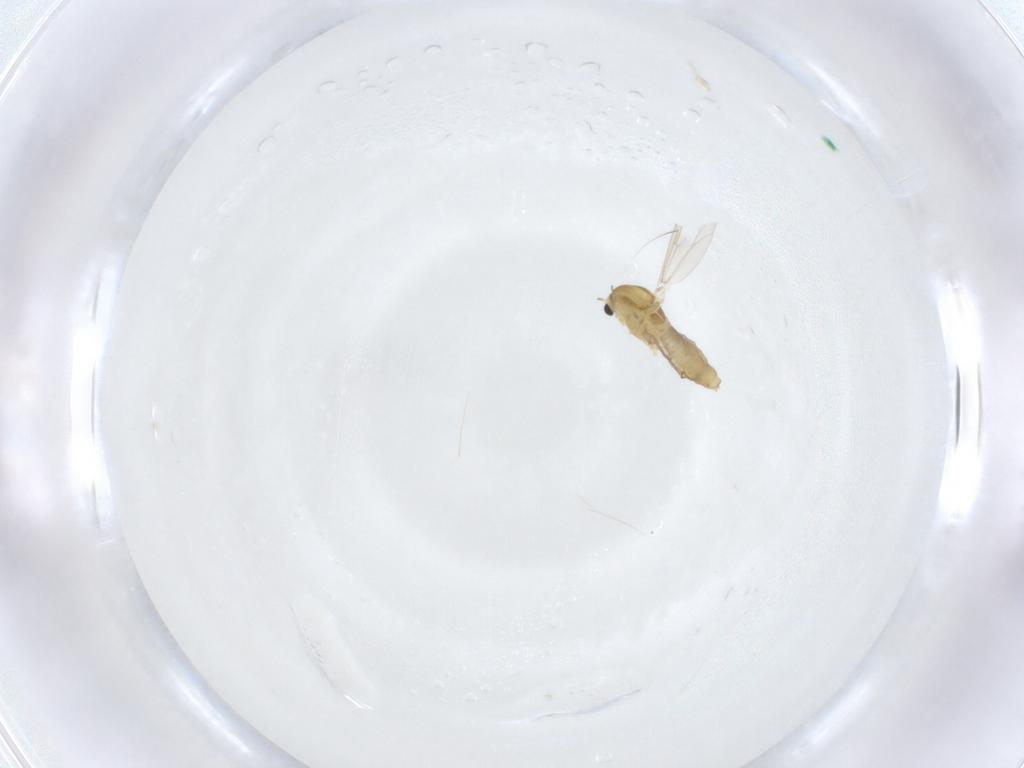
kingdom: Animalia
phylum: Arthropoda
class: Insecta
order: Diptera
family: Chironomidae
